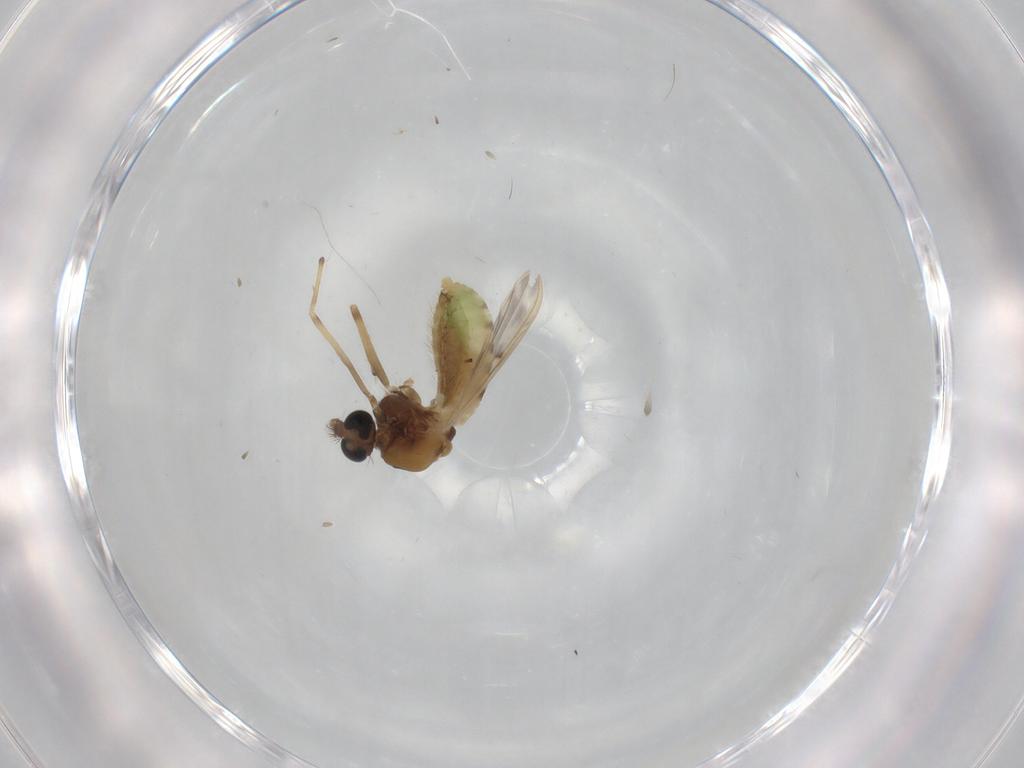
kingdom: Animalia
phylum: Arthropoda
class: Insecta
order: Diptera
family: Chironomidae
